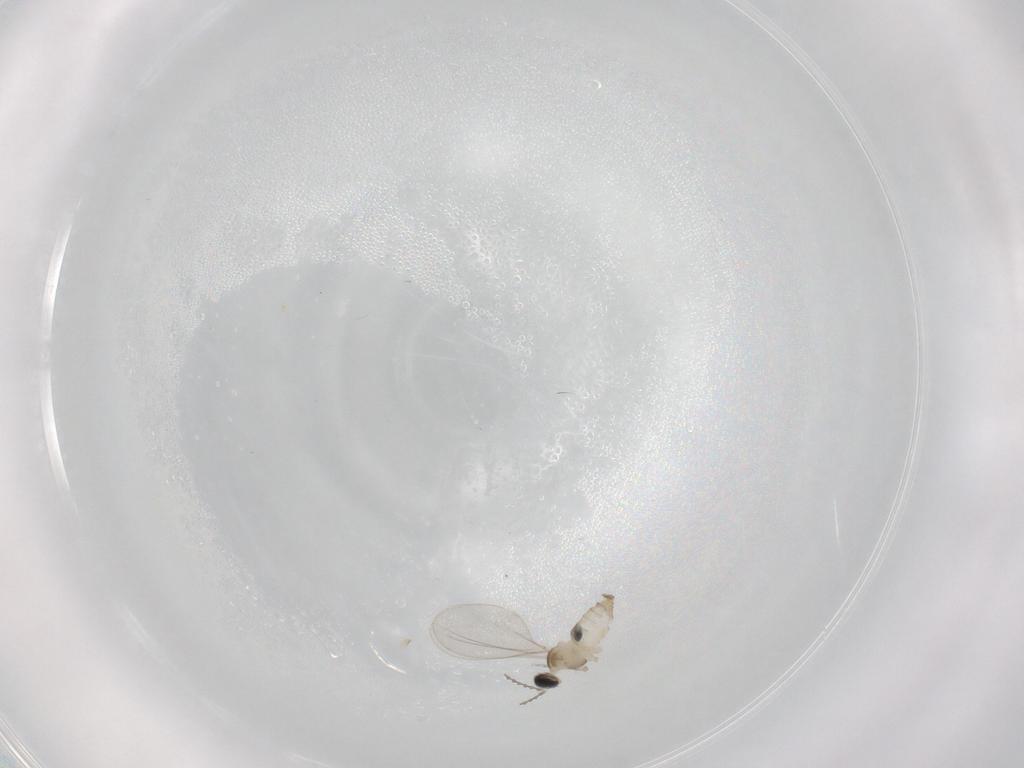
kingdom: Animalia
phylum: Arthropoda
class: Insecta
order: Diptera
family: Cecidomyiidae
